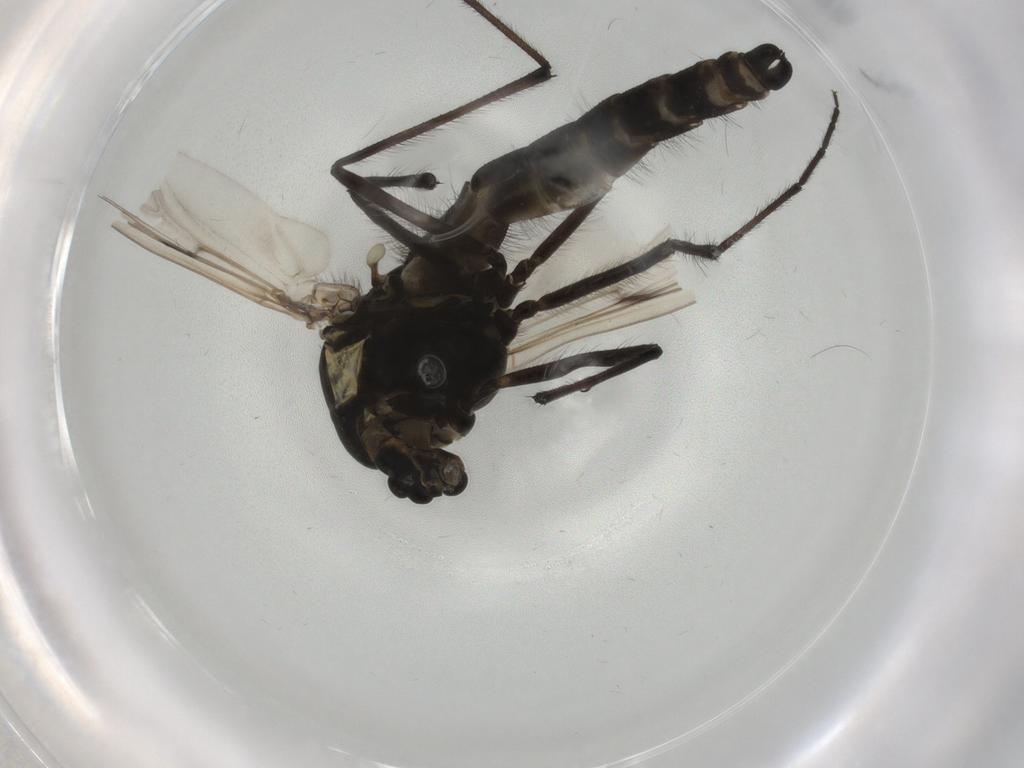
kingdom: Animalia
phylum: Arthropoda
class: Insecta
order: Diptera
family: Chironomidae
